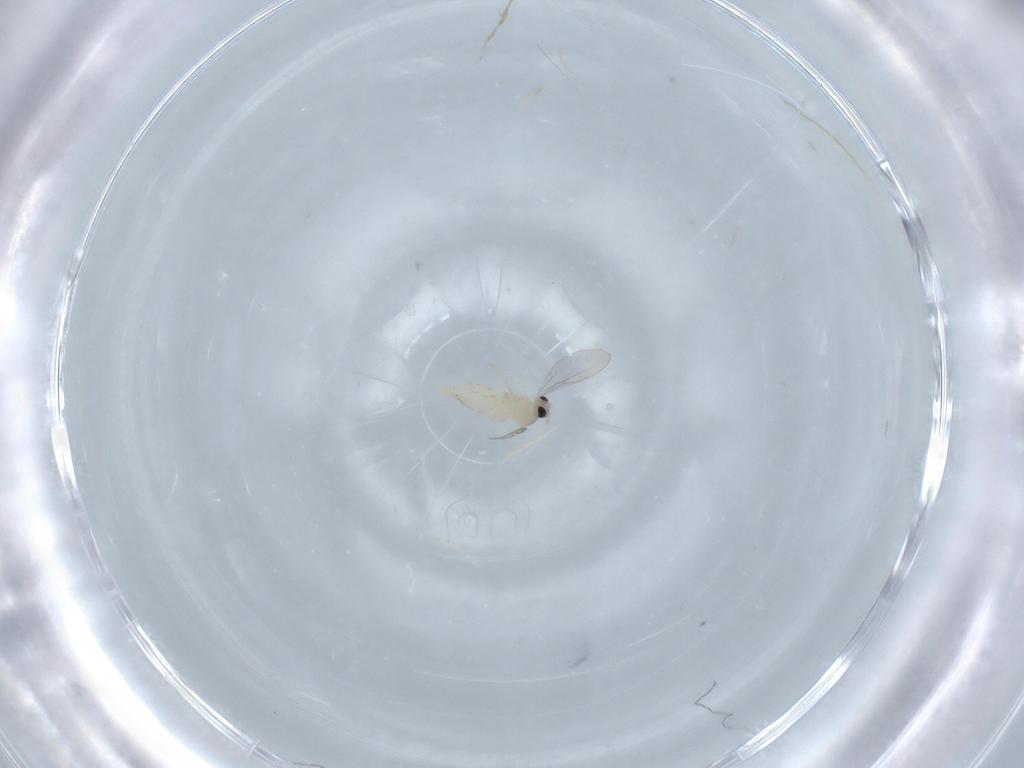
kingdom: Animalia
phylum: Arthropoda
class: Insecta
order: Diptera
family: Cecidomyiidae
